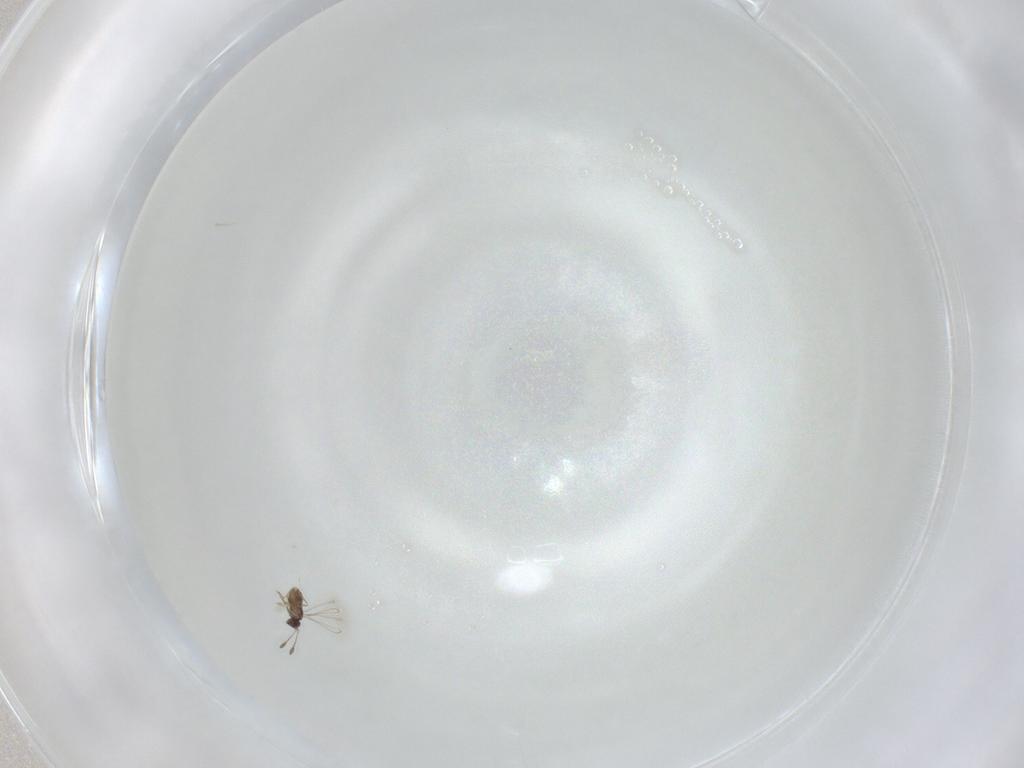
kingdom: Animalia
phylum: Arthropoda
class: Insecta
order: Hymenoptera
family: Braconidae
